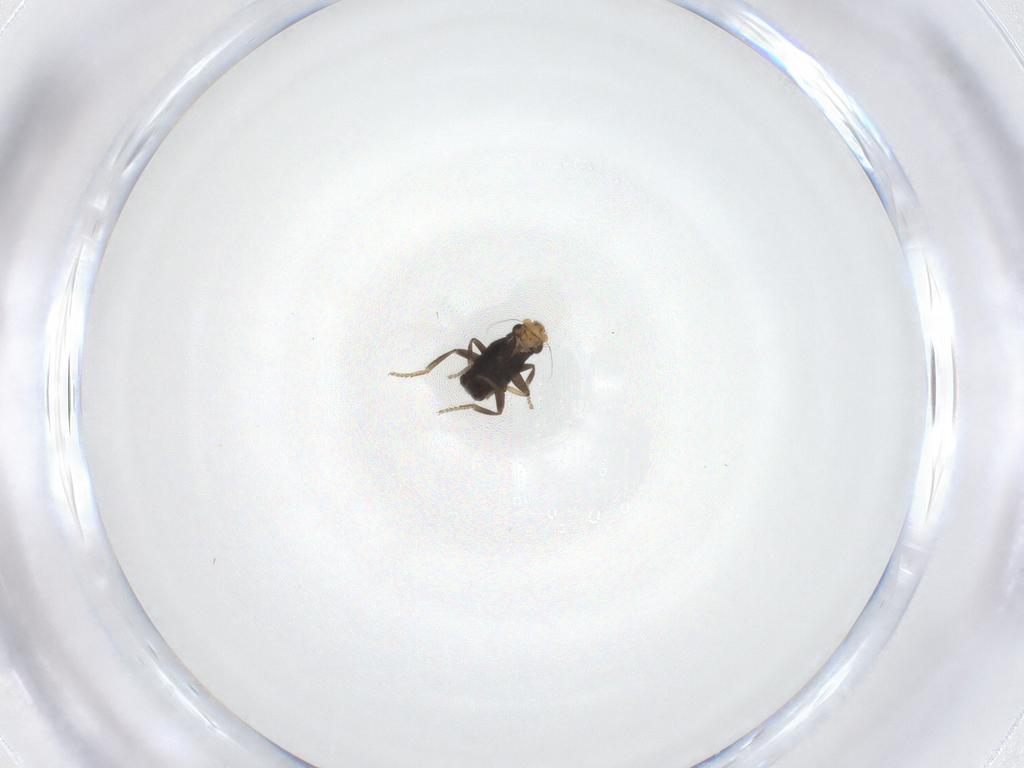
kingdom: Animalia
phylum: Arthropoda
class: Insecta
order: Diptera
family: Phoridae
